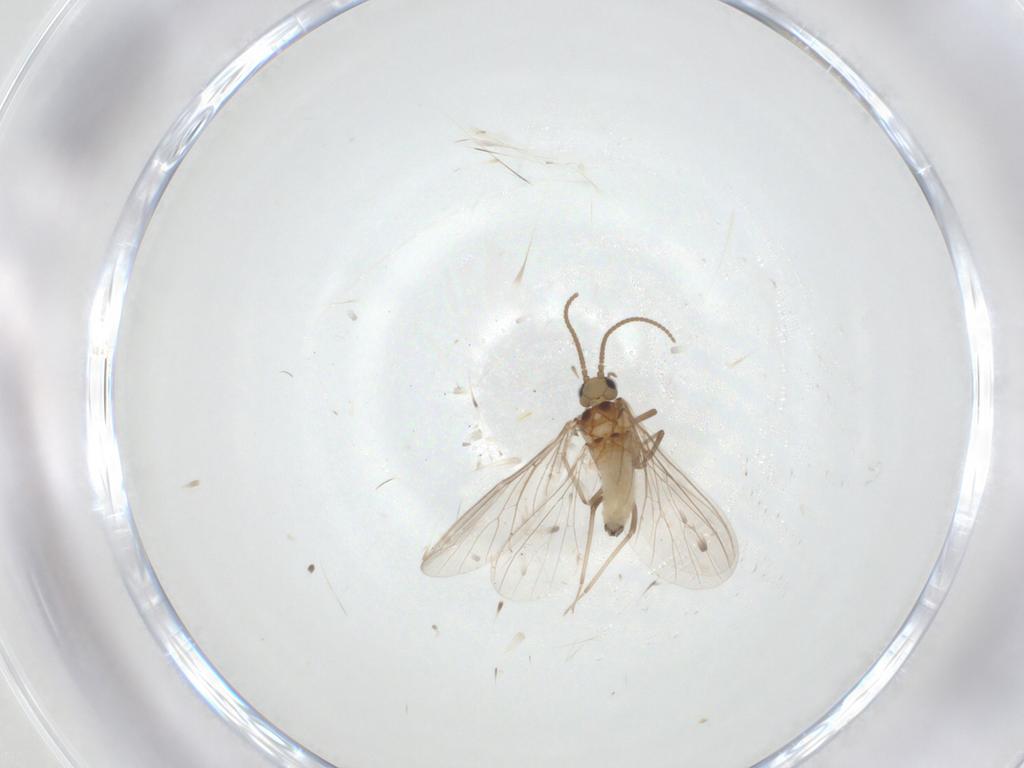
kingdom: Animalia
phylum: Arthropoda
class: Insecta
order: Neuroptera
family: Coniopterygidae
